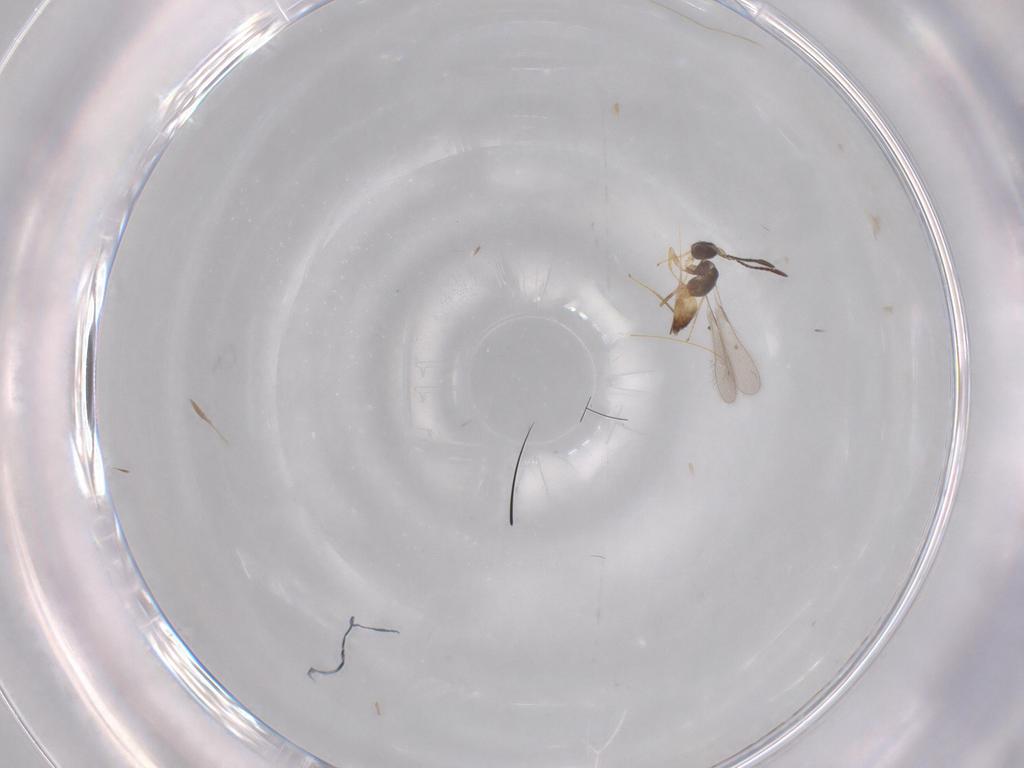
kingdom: Animalia
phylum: Arthropoda
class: Insecta
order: Hymenoptera
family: Mymaridae
